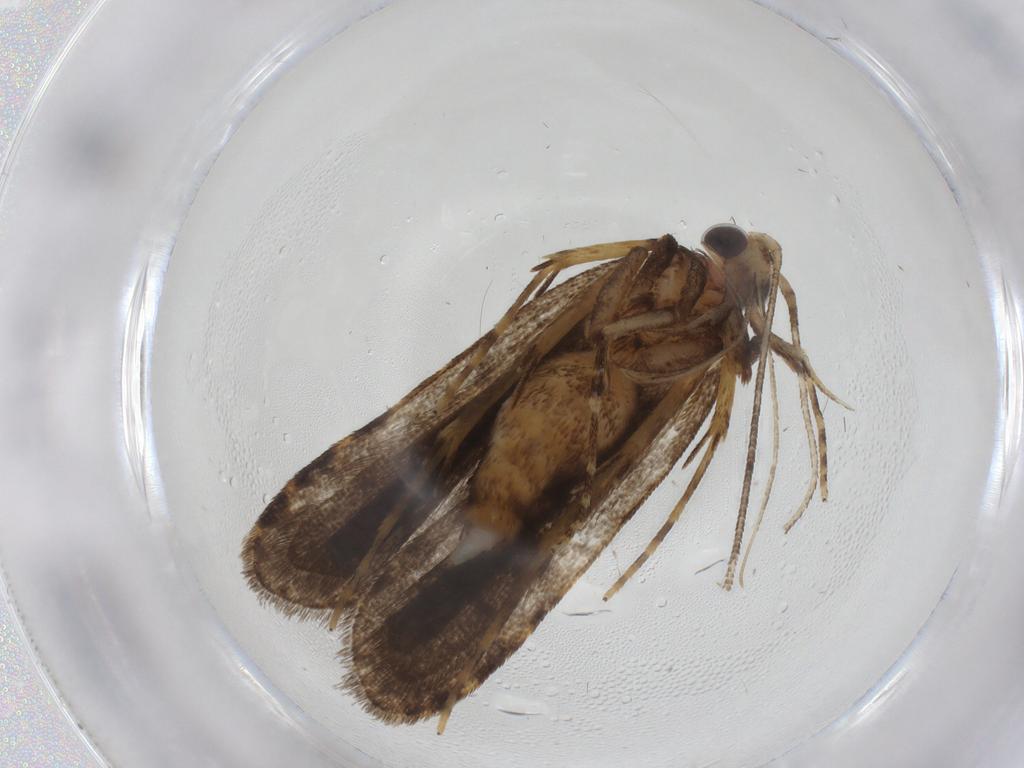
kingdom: Animalia
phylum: Arthropoda
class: Insecta
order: Lepidoptera
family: Autostichidae
